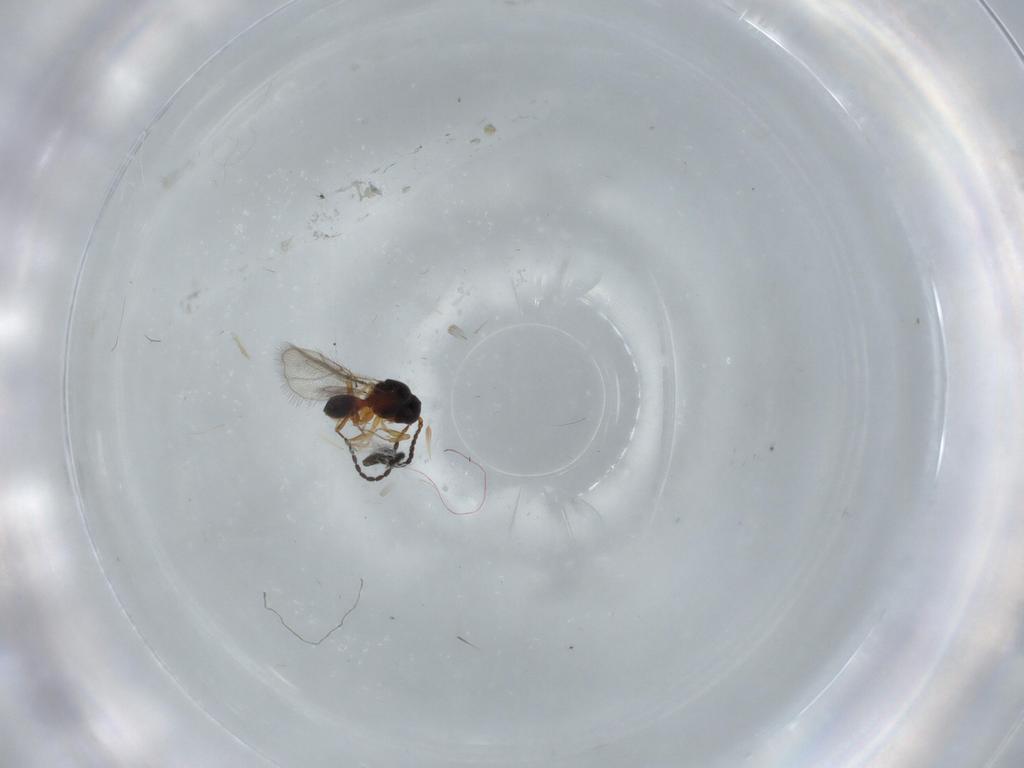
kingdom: Animalia
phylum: Arthropoda
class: Insecta
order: Hymenoptera
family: Figitidae
